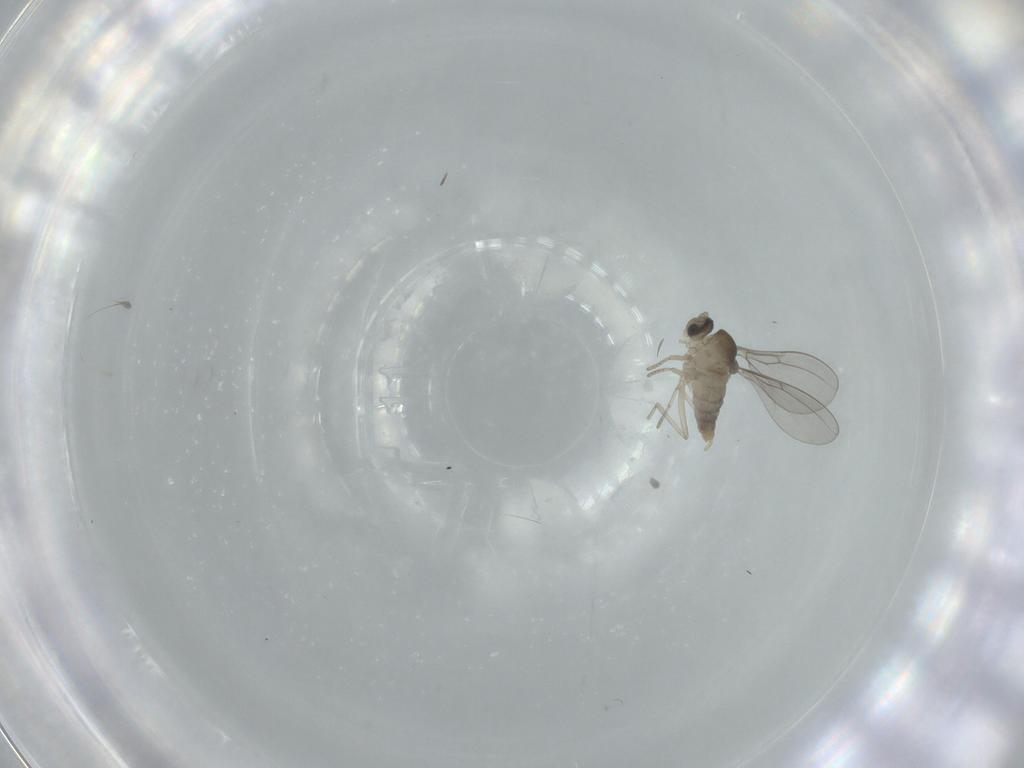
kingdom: Animalia
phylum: Arthropoda
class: Insecta
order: Diptera
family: Cecidomyiidae
